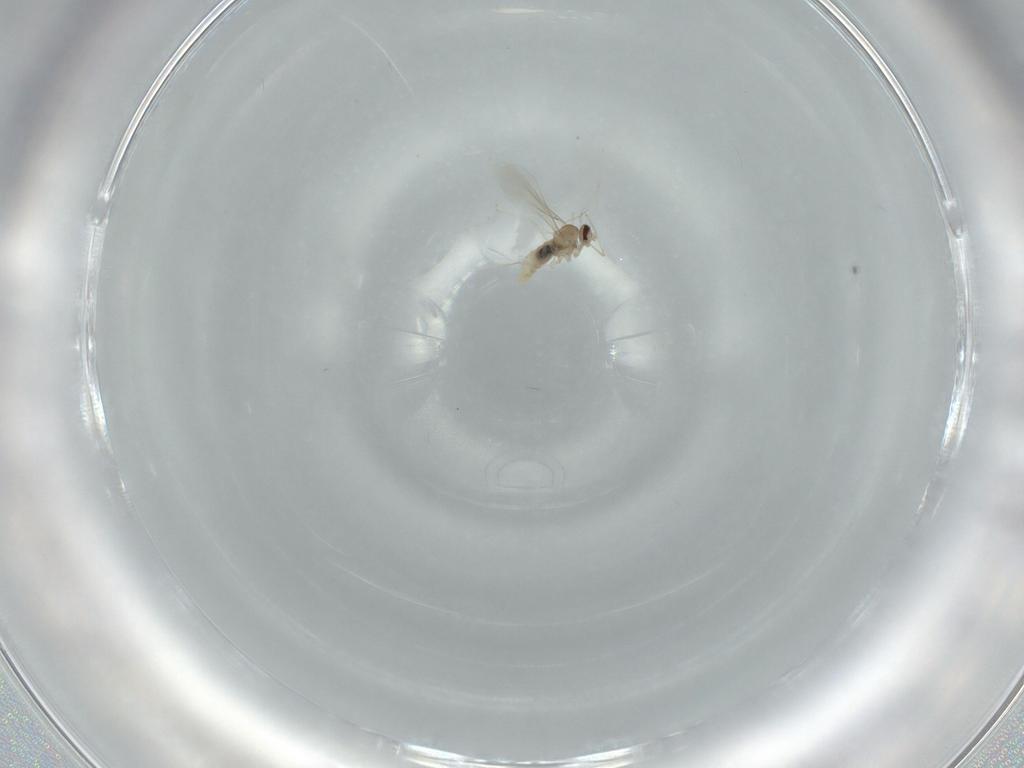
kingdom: Animalia
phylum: Arthropoda
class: Insecta
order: Diptera
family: Cecidomyiidae
